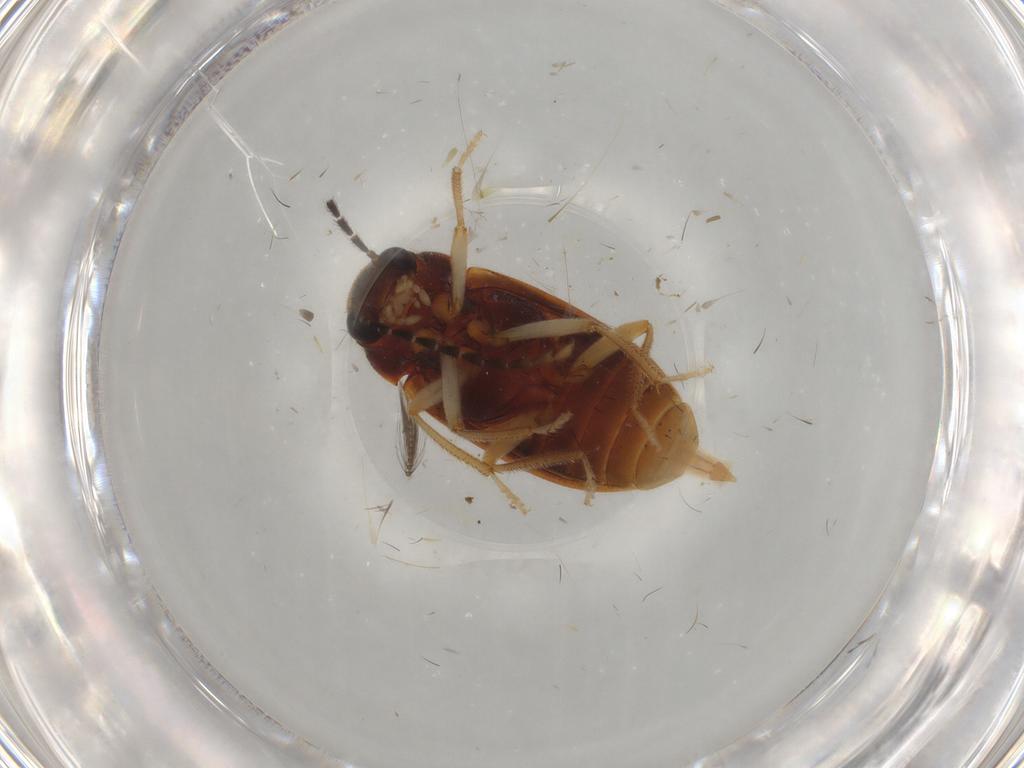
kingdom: Animalia
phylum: Arthropoda
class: Insecta
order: Coleoptera
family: Ptilodactylidae
